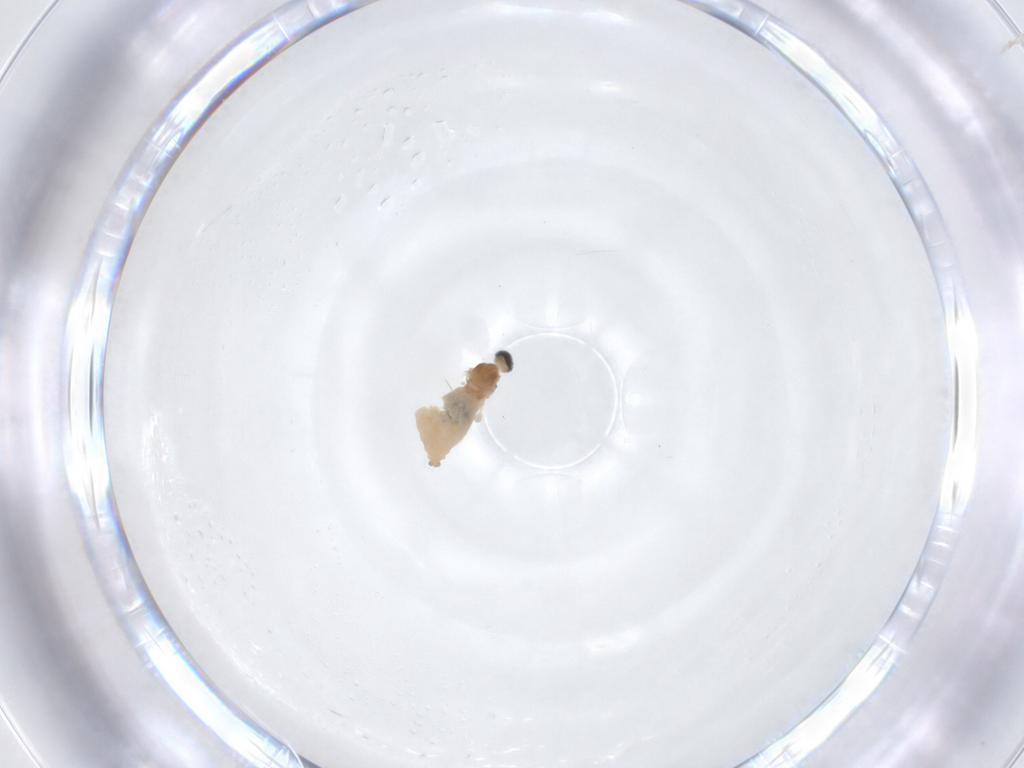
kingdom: Animalia
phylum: Arthropoda
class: Insecta
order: Diptera
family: Cecidomyiidae
